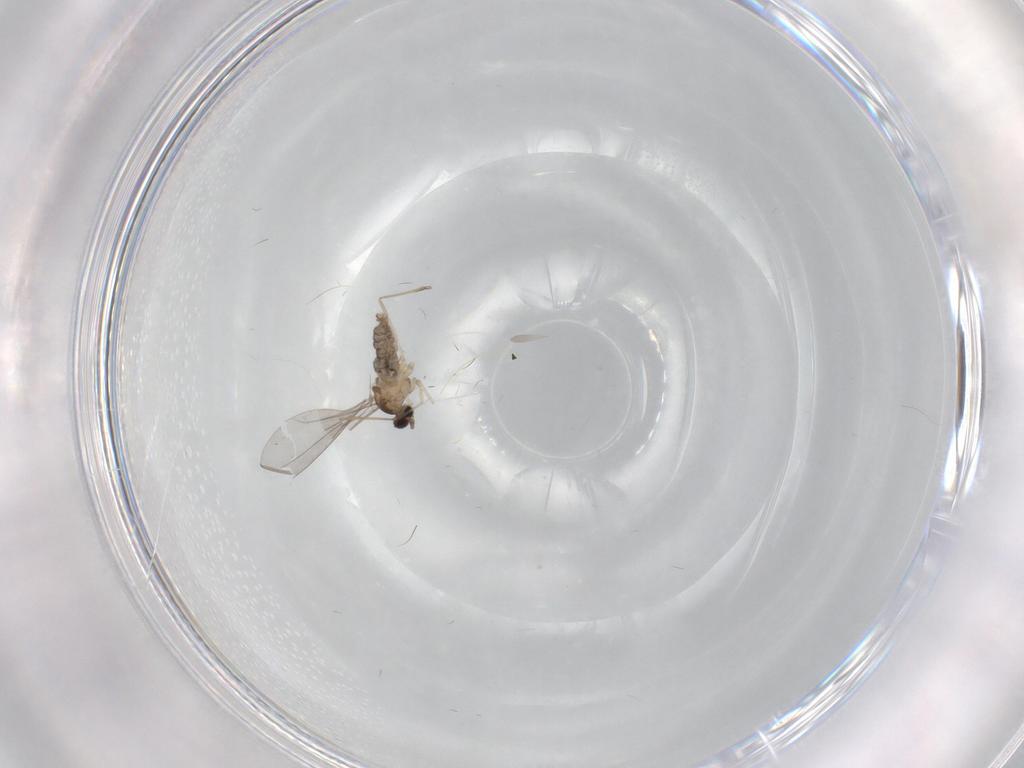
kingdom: Animalia
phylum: Arthropoda
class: Insecta
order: Diptera
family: Cecidomyiidae
